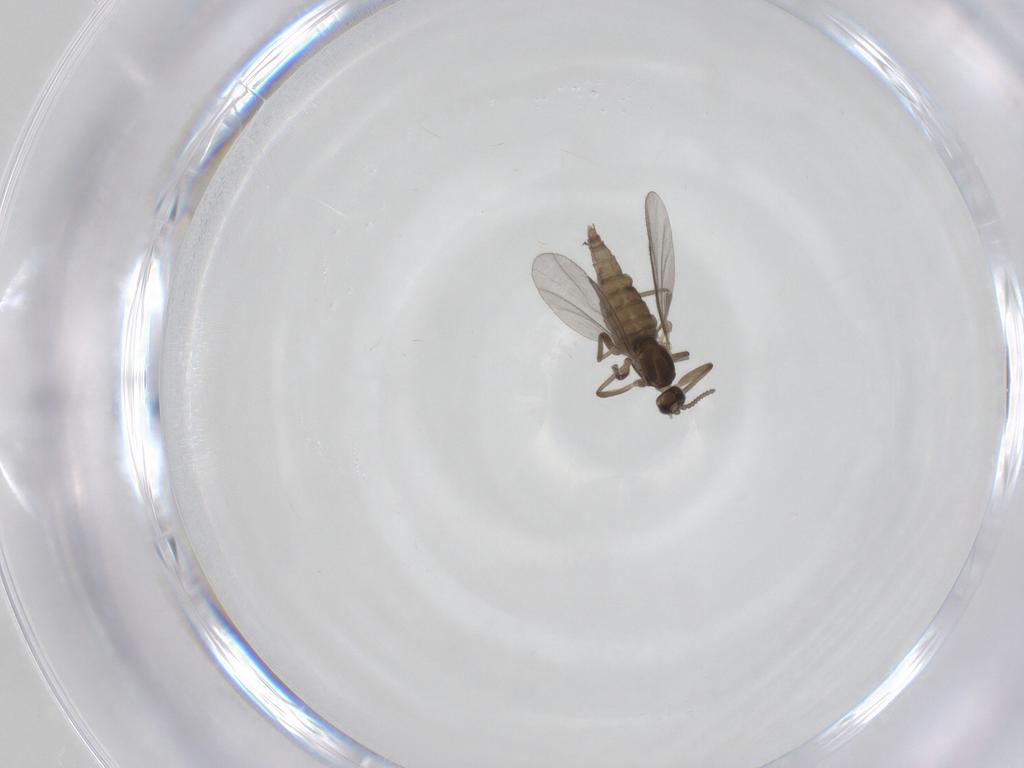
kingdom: Animalia
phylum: Arthropoda
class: Insecta
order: Diptera
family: Cecidomyiidae
